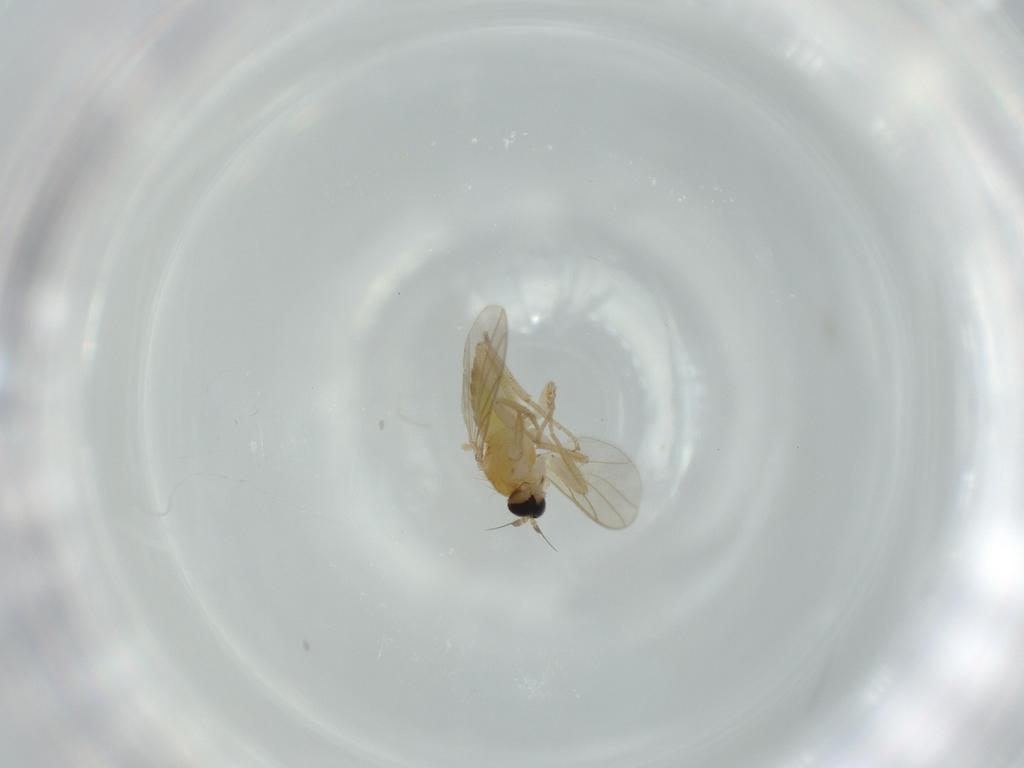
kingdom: Animalia
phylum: Arthropoda
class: Insecta
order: Diptera
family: Hybotidae
